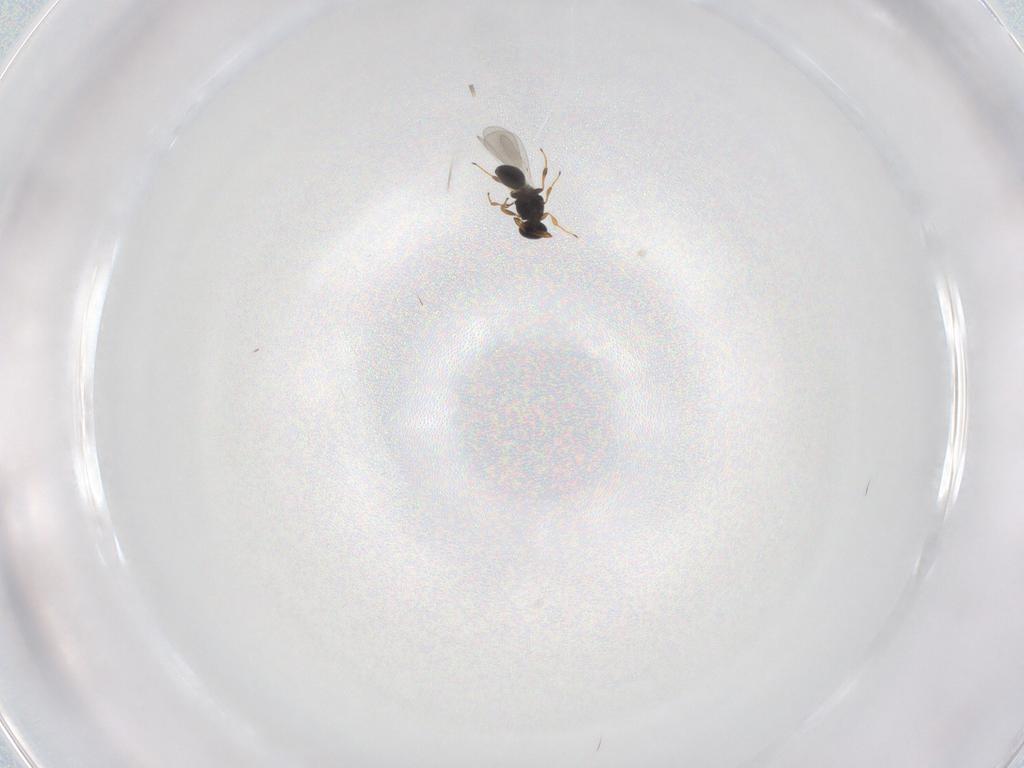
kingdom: Animalia
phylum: Arthropoda
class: Insecta
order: Hymenoptera
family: Platygastridae
